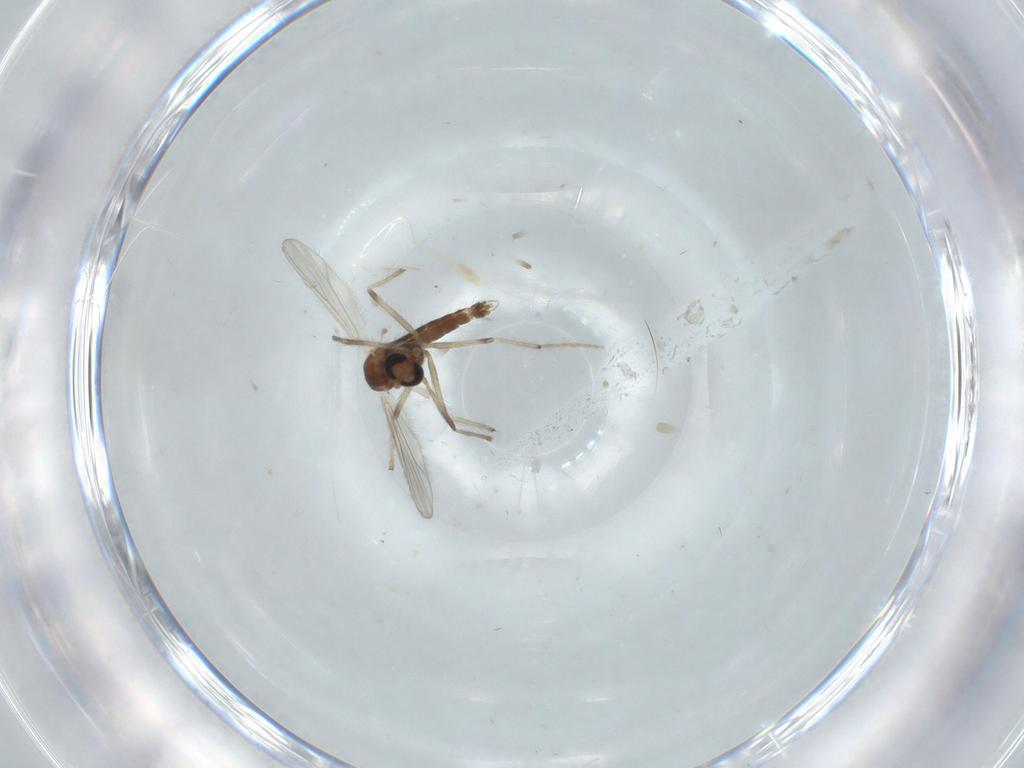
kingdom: Animalia
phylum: Arthropoda
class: Insecta
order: Diptera
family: Chironomidae
